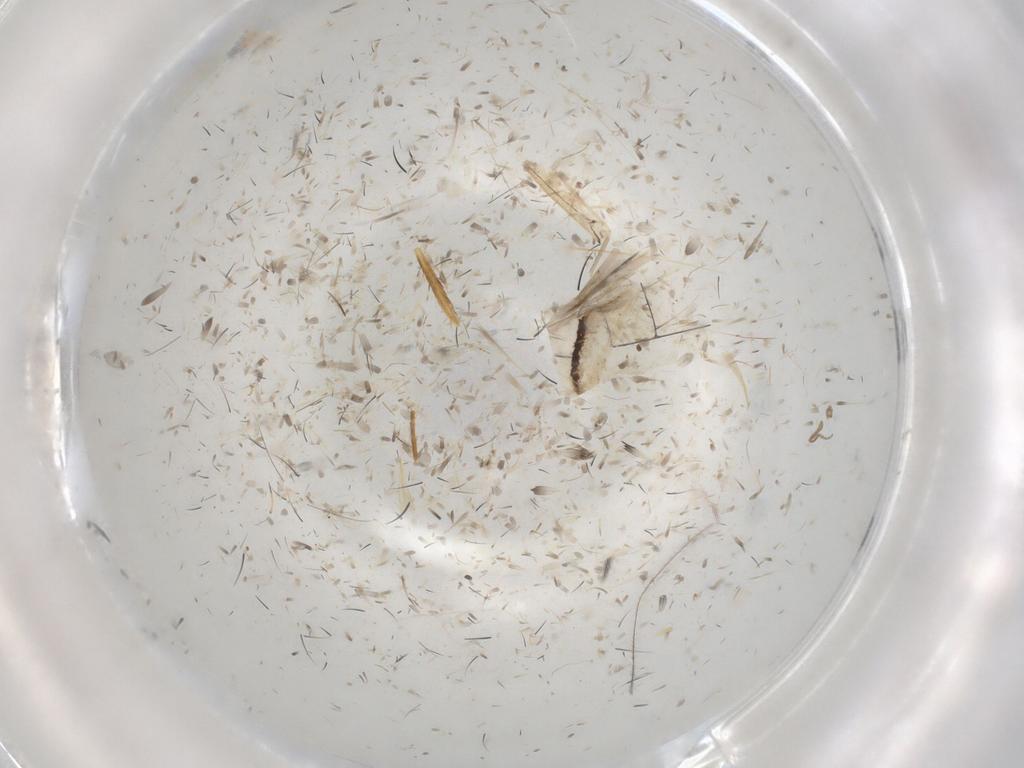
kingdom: Animalia
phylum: Arthropoda
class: Insecta
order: Diptera
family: Glossinidae
